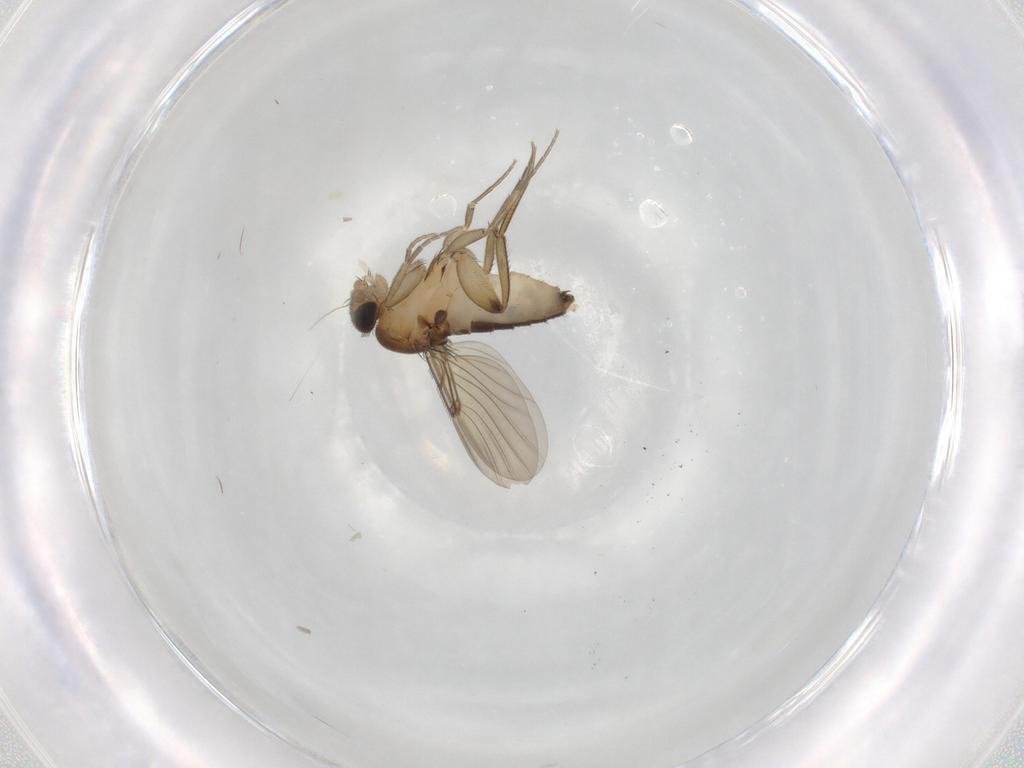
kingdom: Animalia
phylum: Arthropoda
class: Insecta
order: Diptera
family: Phoridae
